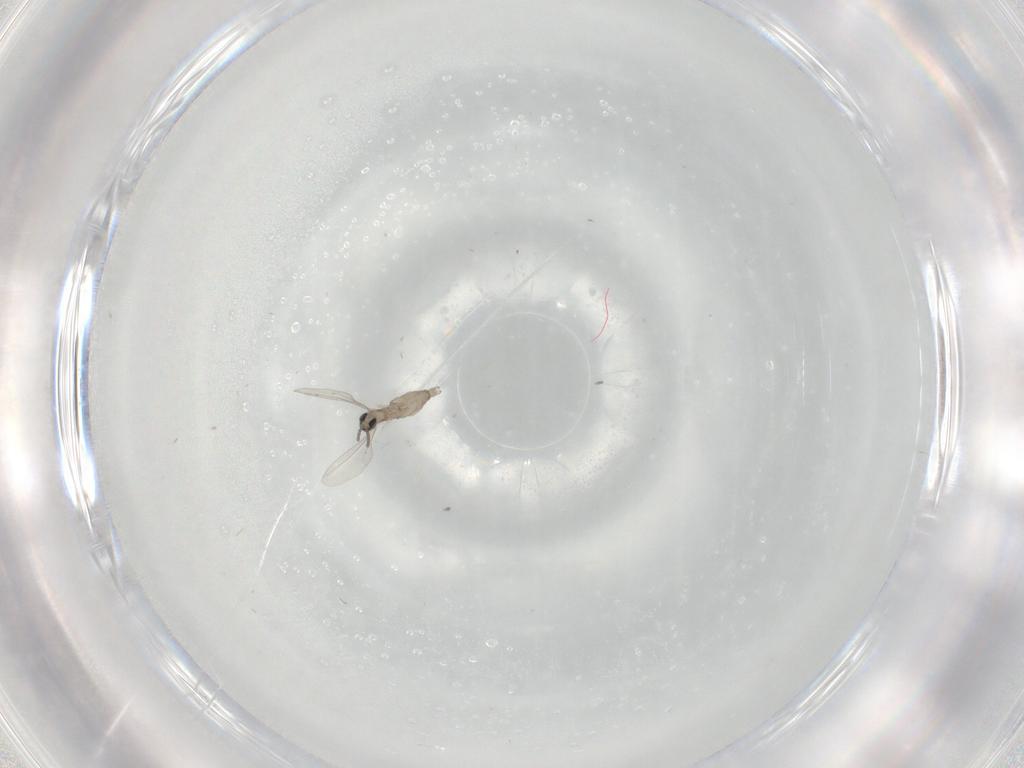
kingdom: Animalia
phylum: Arthropoda
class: Insecta
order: Diptera
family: Cecidomyiidae
